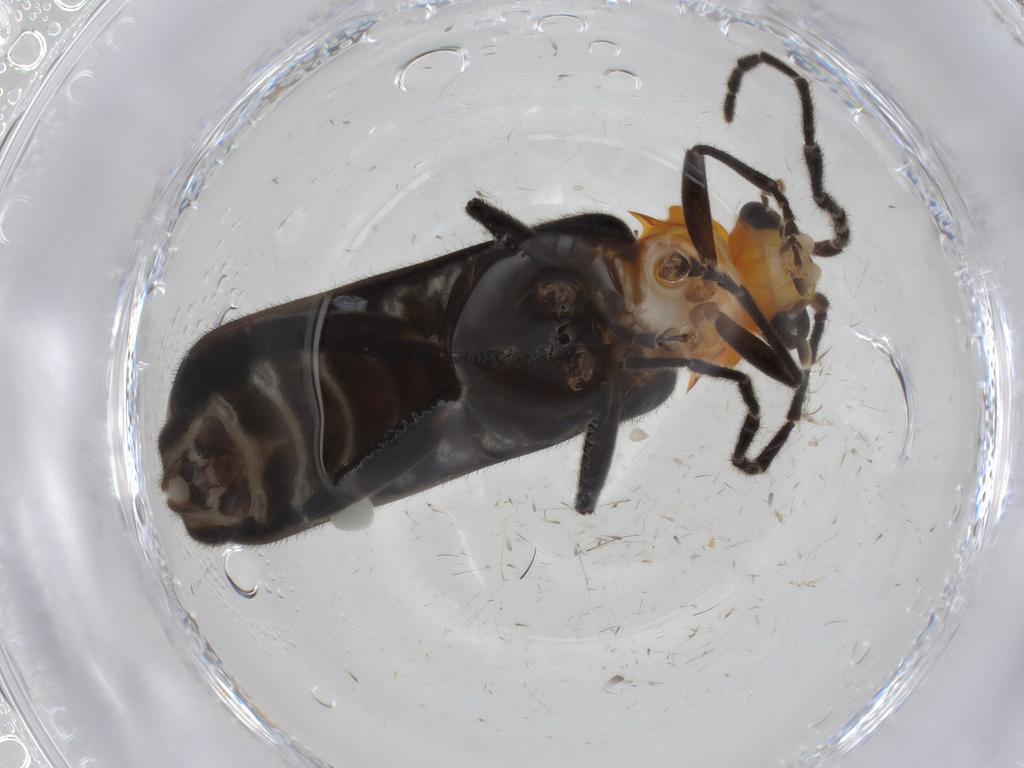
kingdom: Animalia
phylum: Arthropoda
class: Insecta
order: Coleoptera
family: Cantharidae
